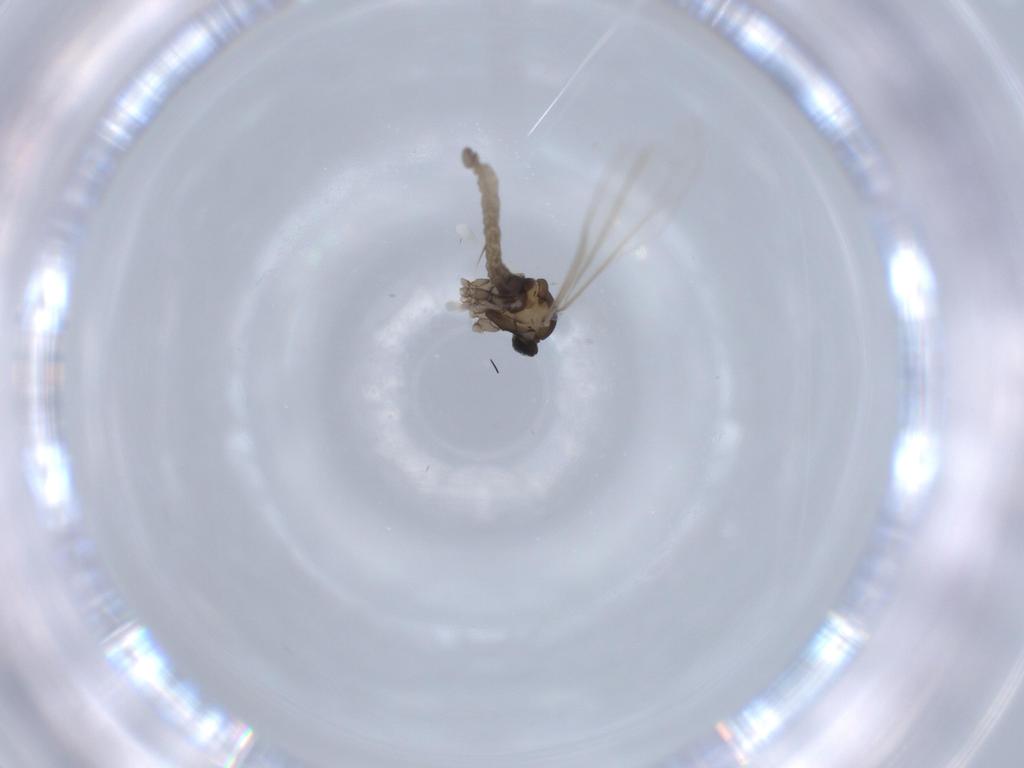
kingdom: Animalia
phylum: Arthropoda
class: Insecta
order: Diptera
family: Cecidomyiidae
